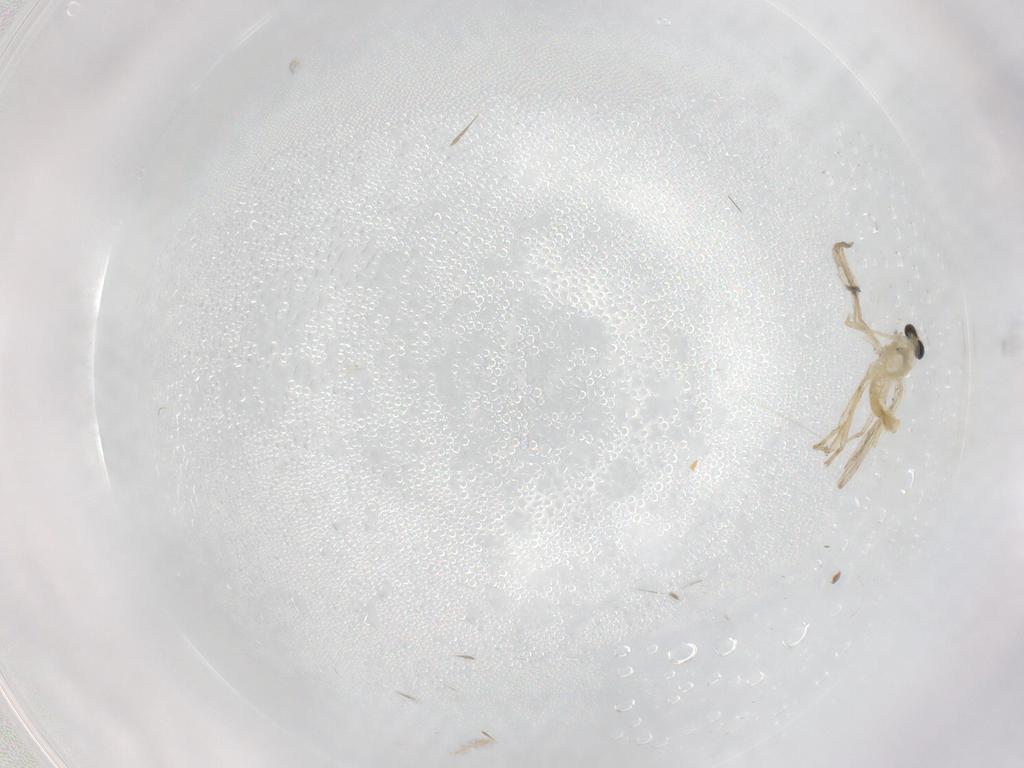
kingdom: Animalia
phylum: Arthropoda
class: Insecta
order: Diptera
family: Chironomidae
